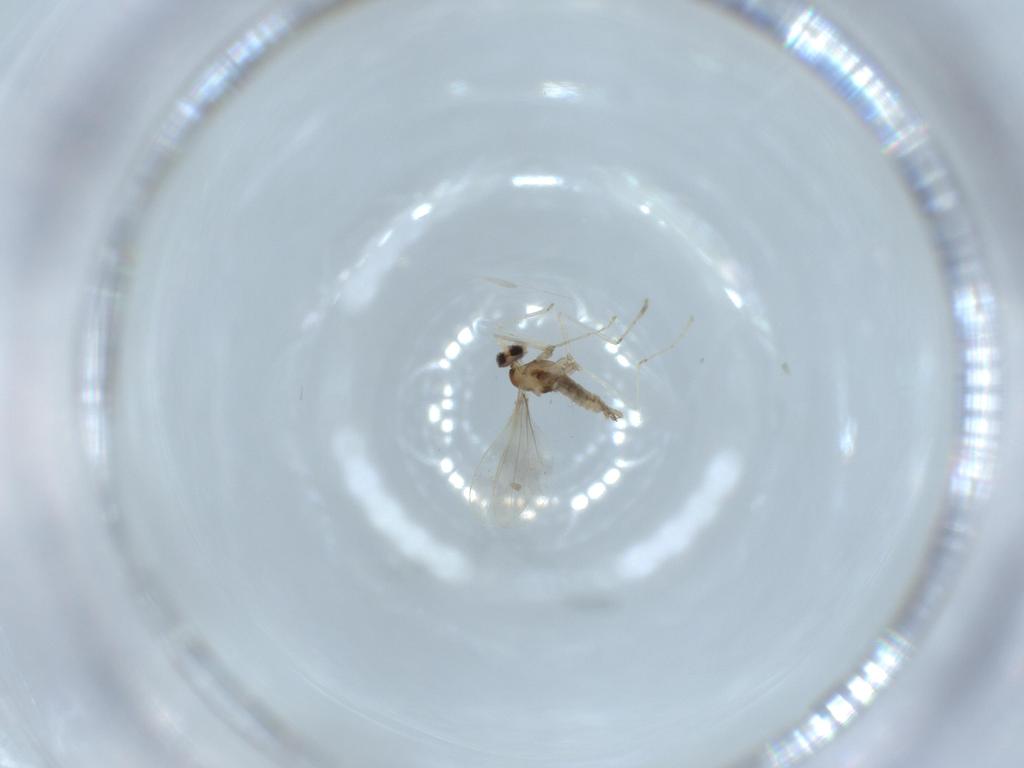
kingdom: Animalia
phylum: Arthropoda
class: Insecta
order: Diptera
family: Cecidomyiidae
